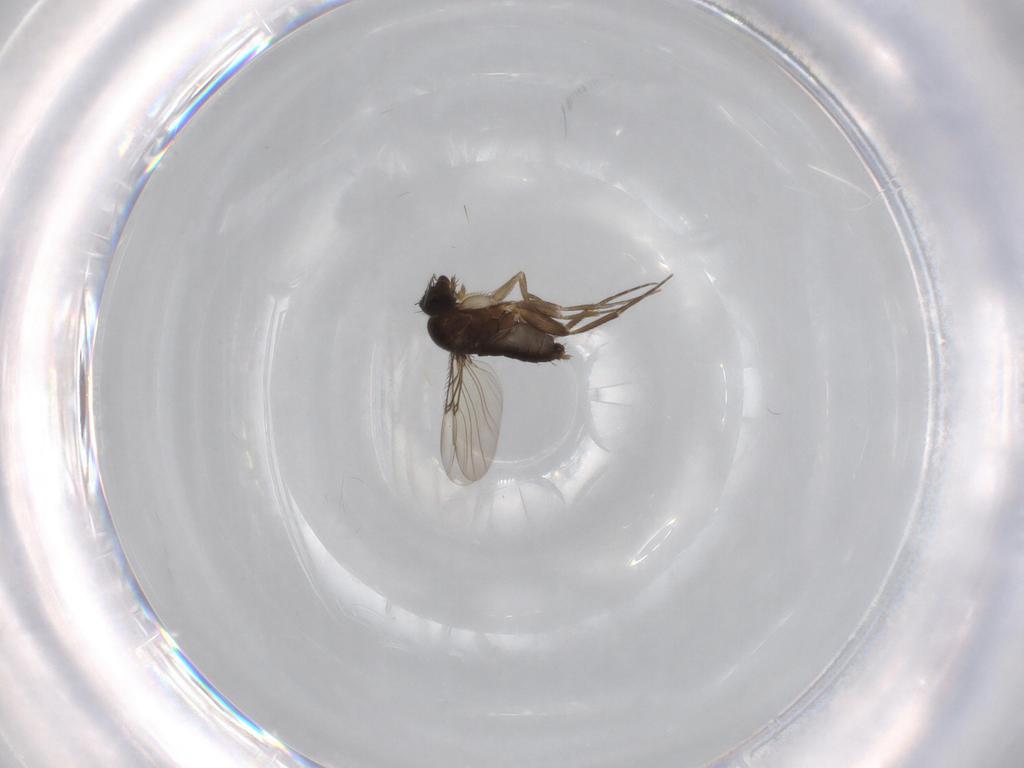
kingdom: Animalia
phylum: Arthropoda
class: Insecta
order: Diptera
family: Phoridae
